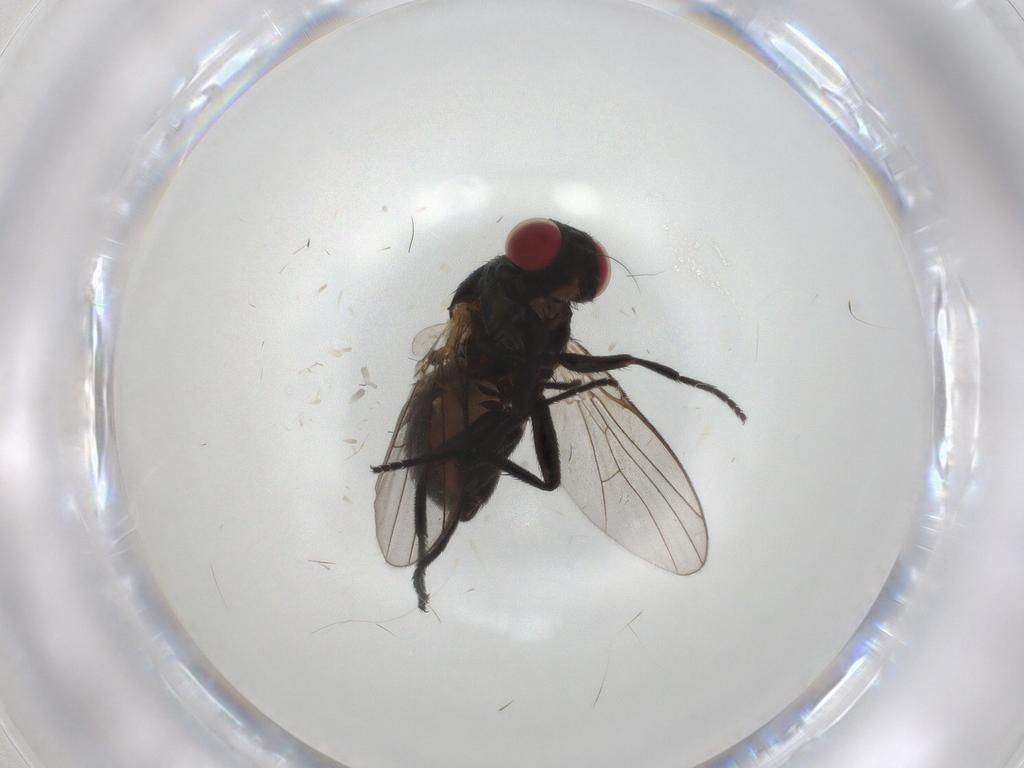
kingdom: Animalia
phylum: Arthropoda
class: Insecta
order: Diptera
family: Agromyzidae
